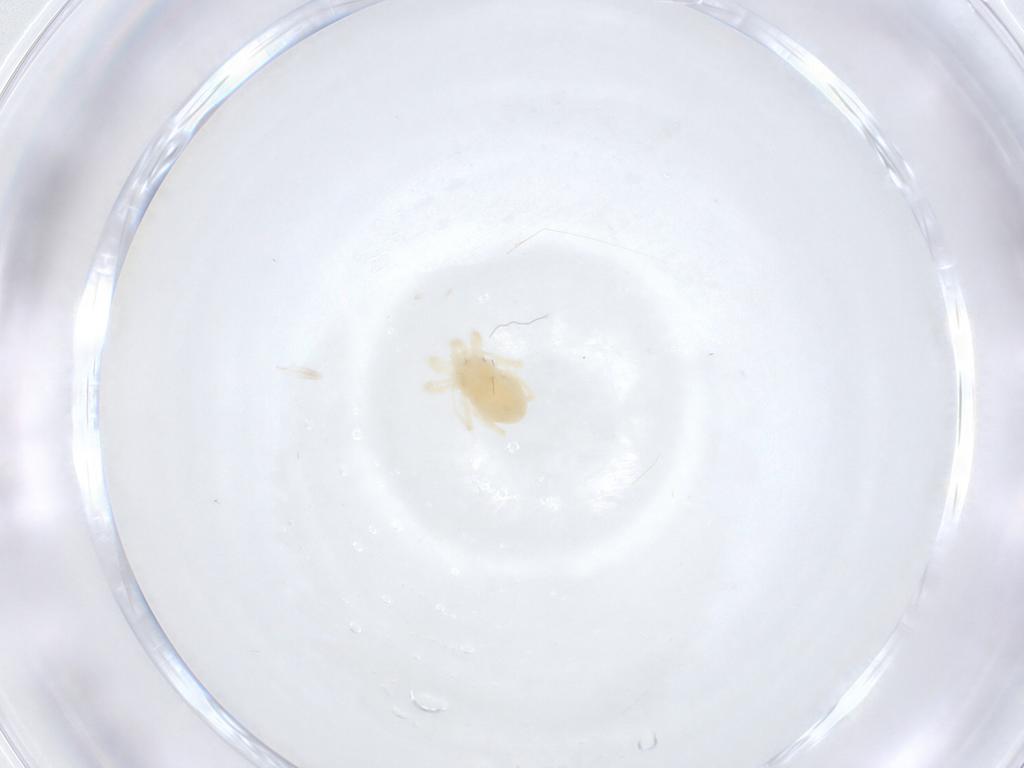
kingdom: Animalia
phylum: Arthropoda
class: Arachnida
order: Trombidiformes
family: Anystidae
